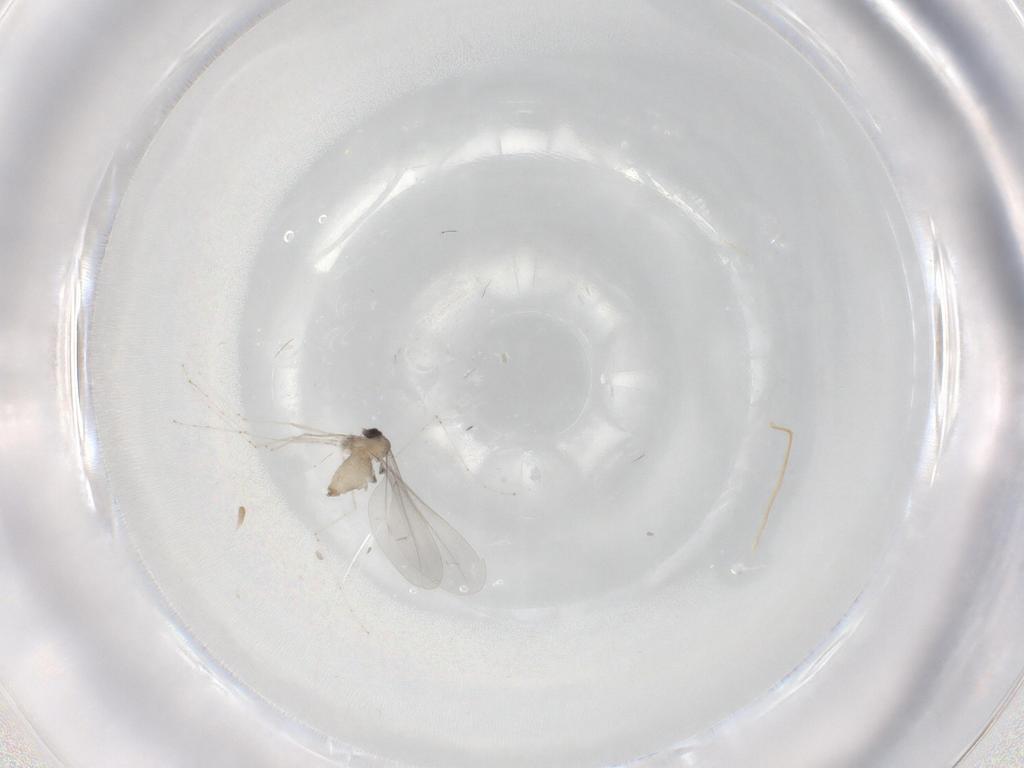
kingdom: Animalia
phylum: Arthropoda
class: Insecta
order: Diptera
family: Cecidomyiidae
